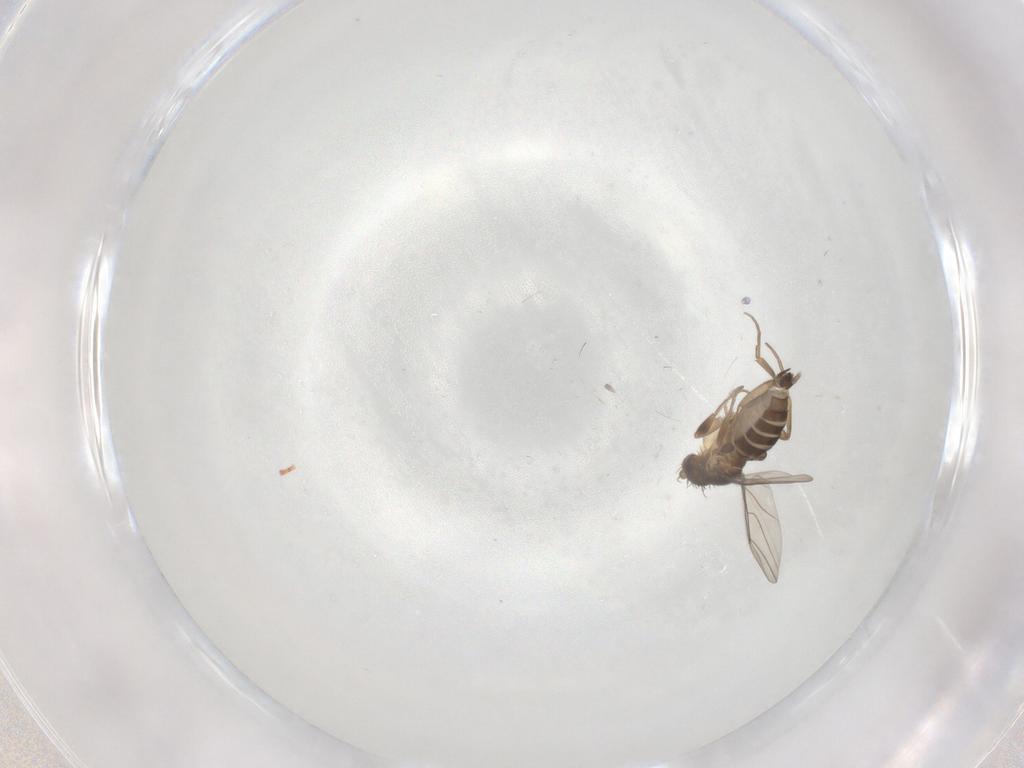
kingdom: Animalia
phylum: Arthropoda
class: Insecta
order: Diptera
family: Phoridae
